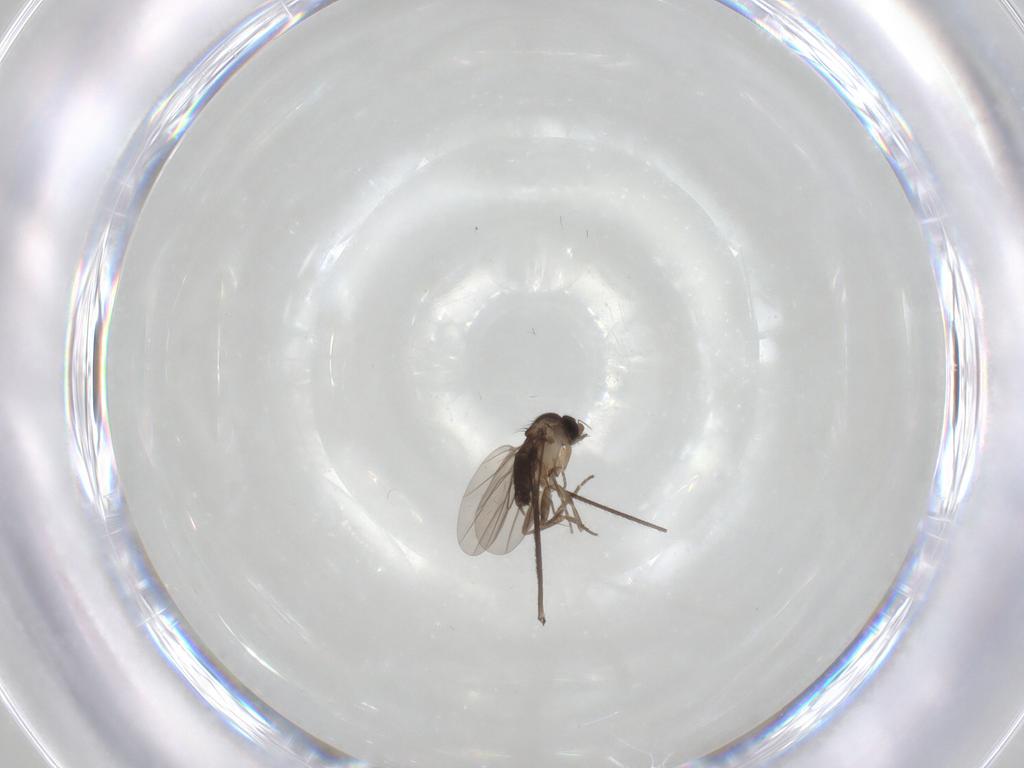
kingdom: Animalia
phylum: Arthropoda
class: Insecta
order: Diptera
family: Limoniidae
